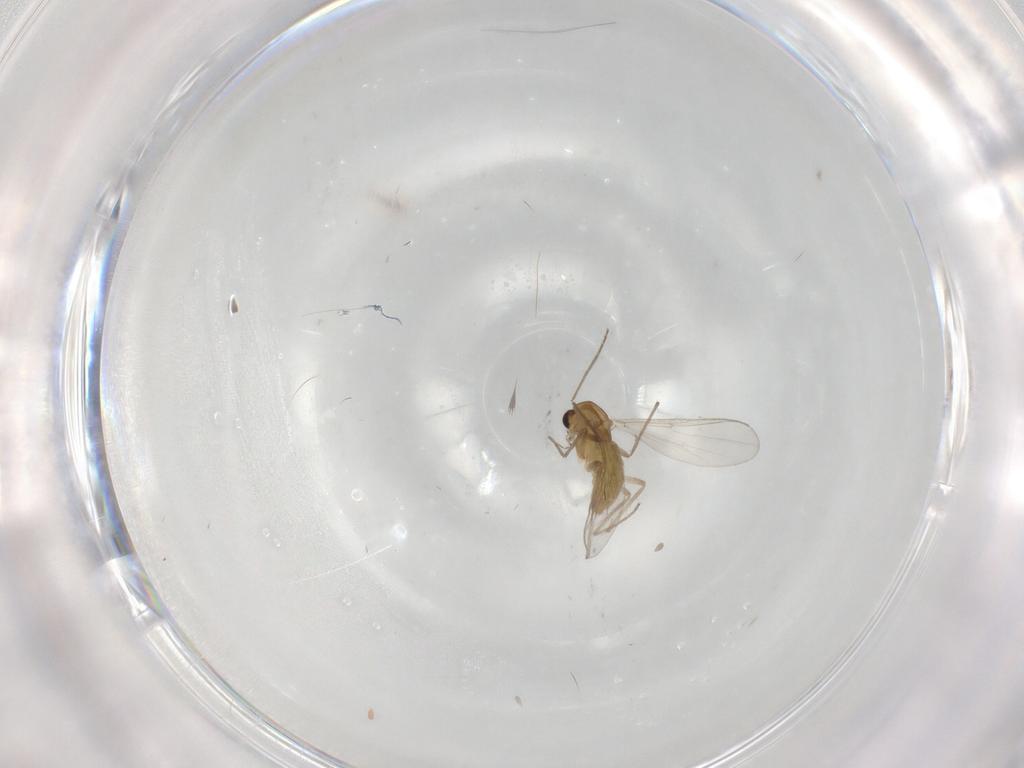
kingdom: Animalia
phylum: Arthropoda
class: Insecta
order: Diptera
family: Chironomidae
